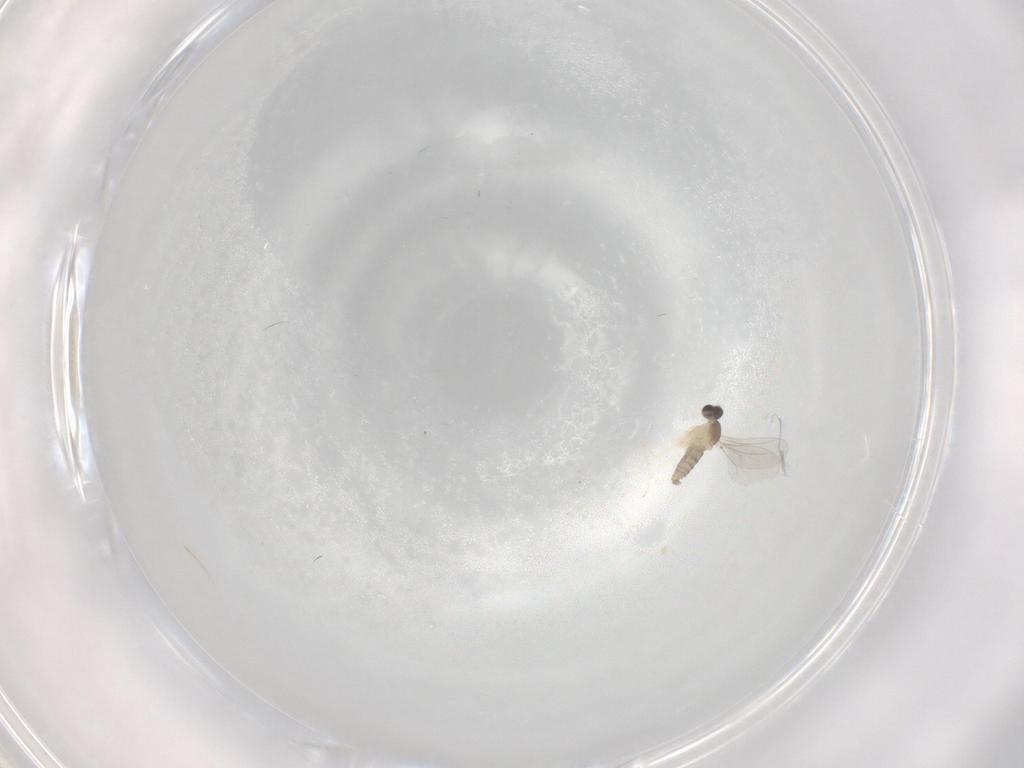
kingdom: Animalia
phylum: Arthropoda
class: Insecta
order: Diptera
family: Cecidomyiidae
